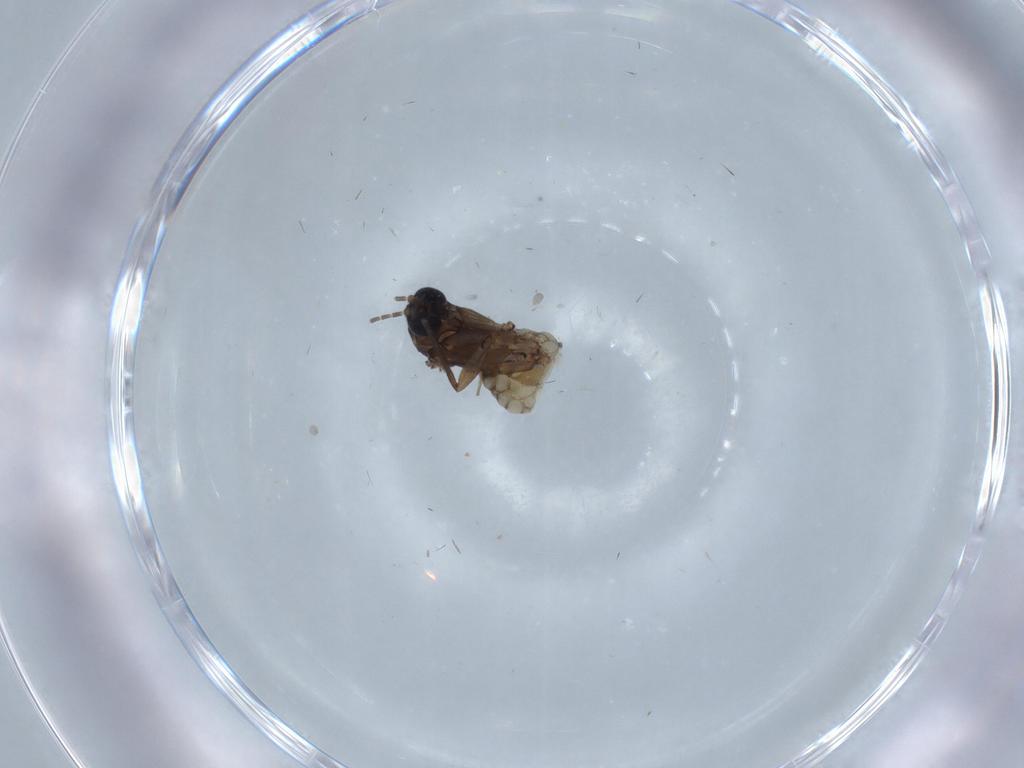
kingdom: Animalia
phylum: Arthropoda
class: Insecta
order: Diptera
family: Sciaridae
